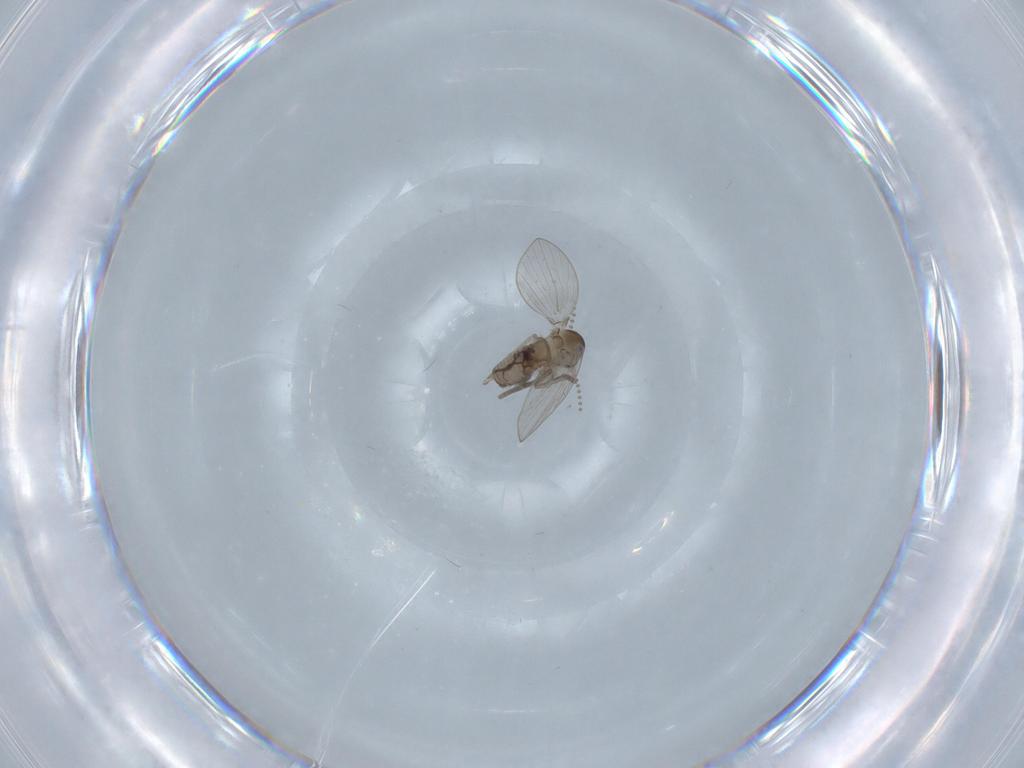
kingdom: Animalia
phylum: Arthropoda
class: Insecta
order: Diptera
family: Psychodidae
